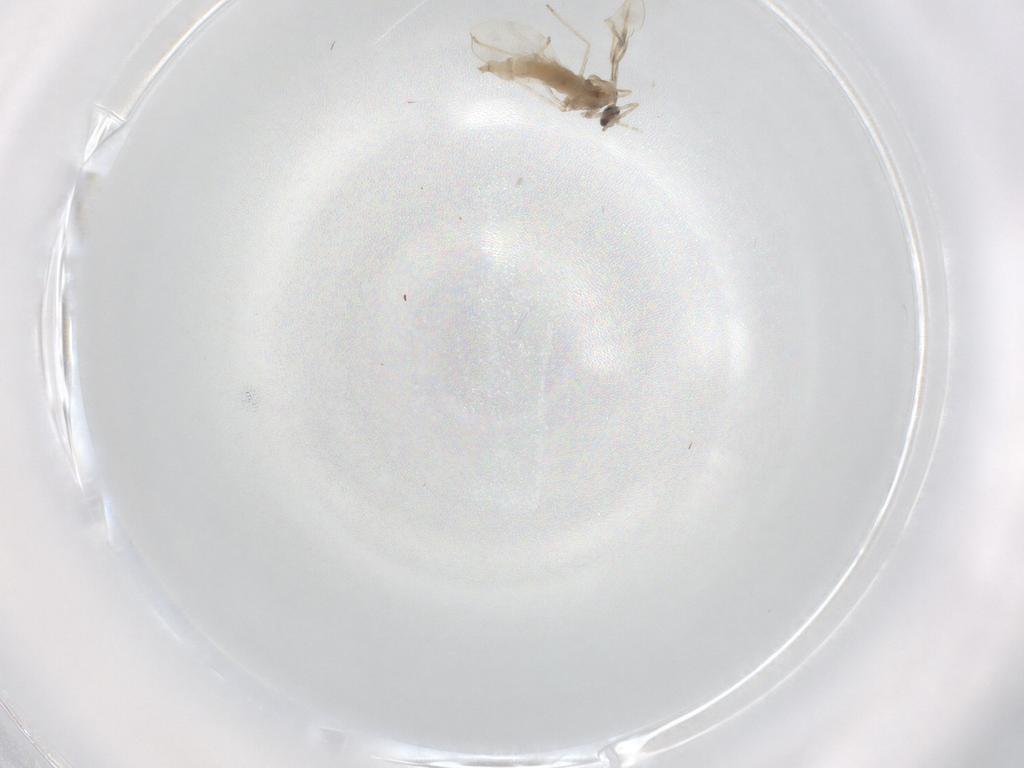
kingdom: Animalia
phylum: Arthropoda
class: Insecta
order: Diptera
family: Cecidomyiidae
